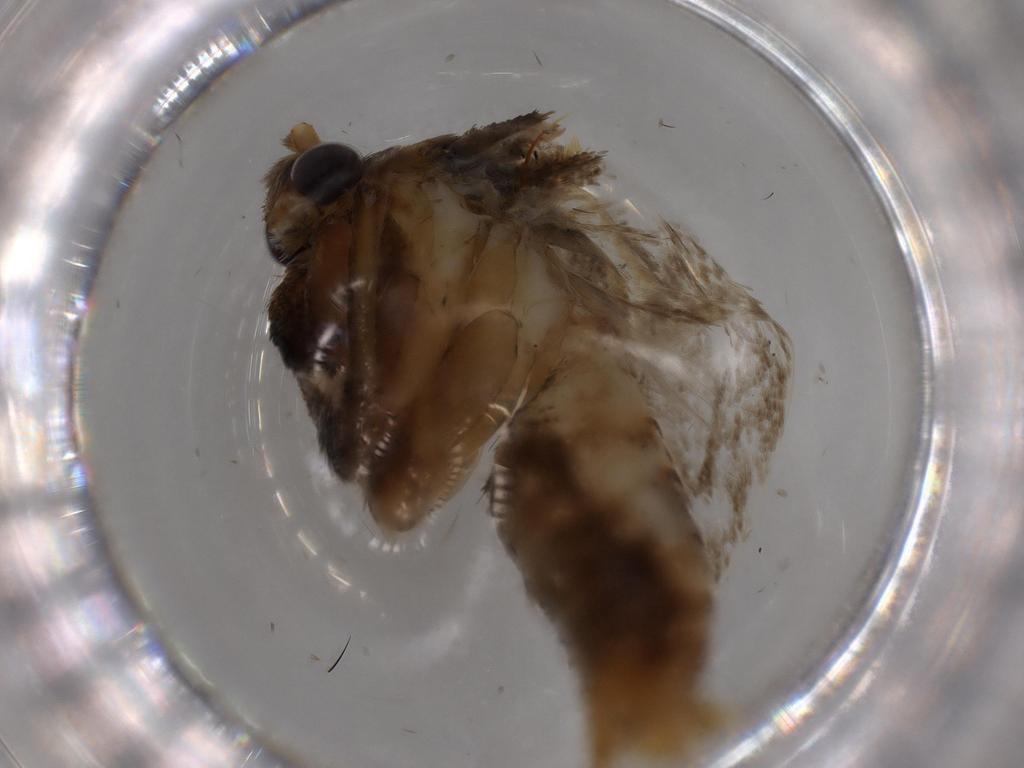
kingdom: Animalia
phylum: Arthropoda
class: Insecta
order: Lepidoptera
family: Blastobasidae
